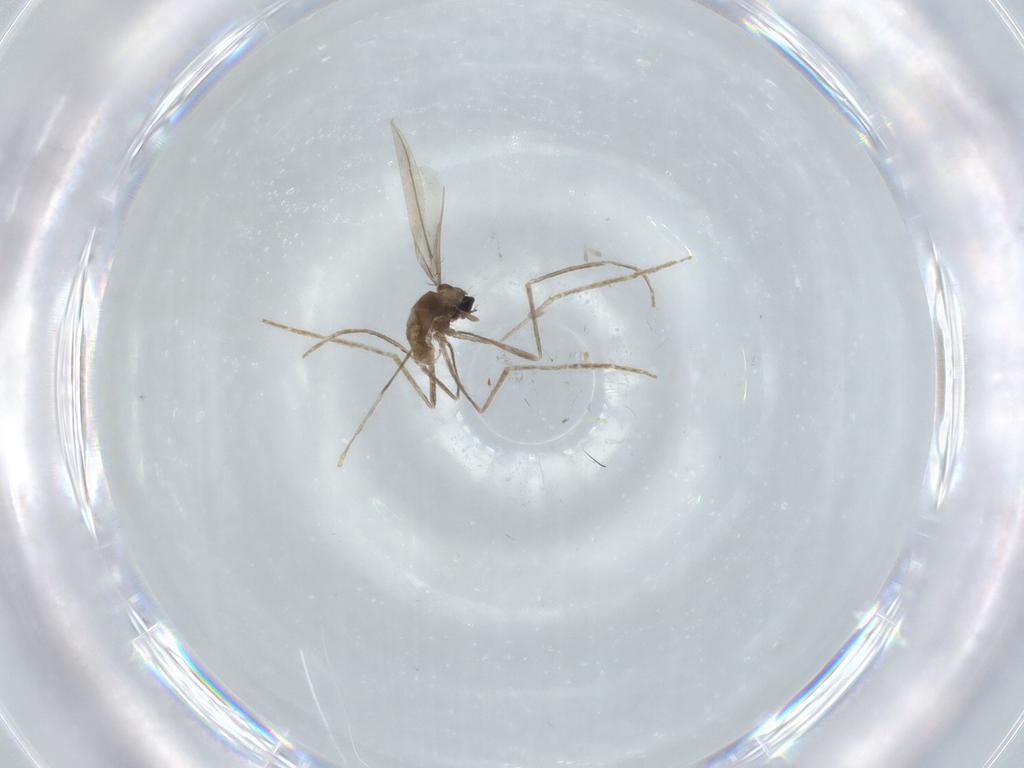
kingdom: Animalia
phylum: Arthropoda
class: Insecta
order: Diptera
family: Cecidomyiidae
